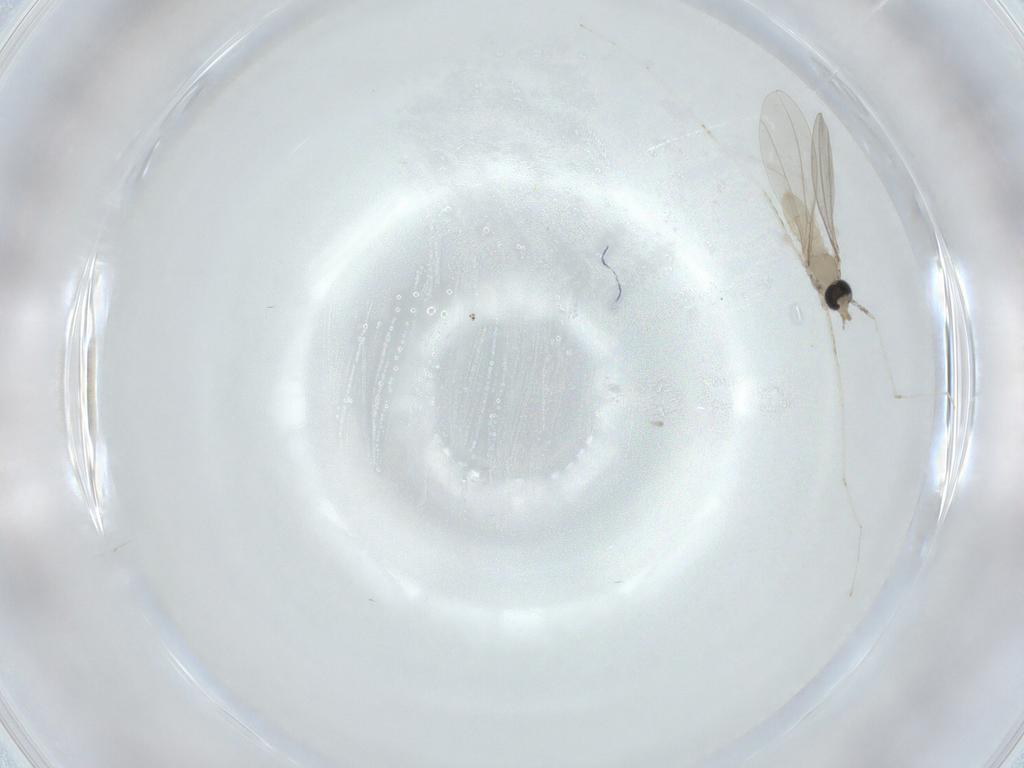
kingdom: Animalia
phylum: Arthropoda
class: Insecta
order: Diptera
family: Cecidomyiidae
